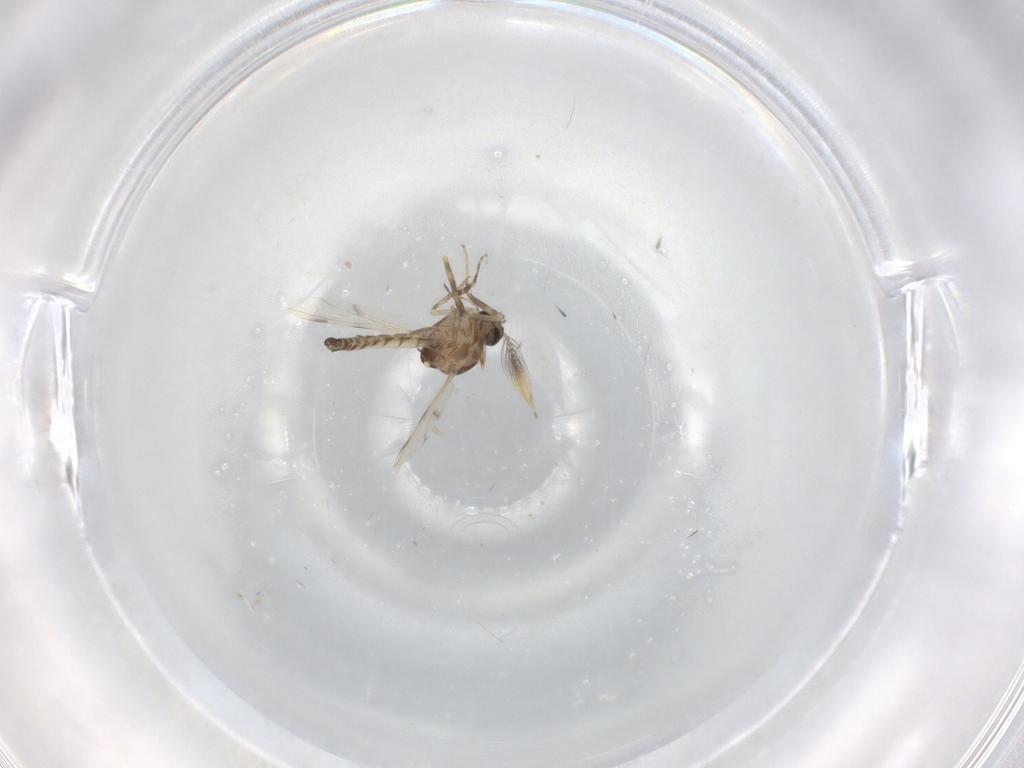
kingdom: Animalia
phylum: Arthropoda
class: Insecta
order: Diptera
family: Ceratopogonidae
